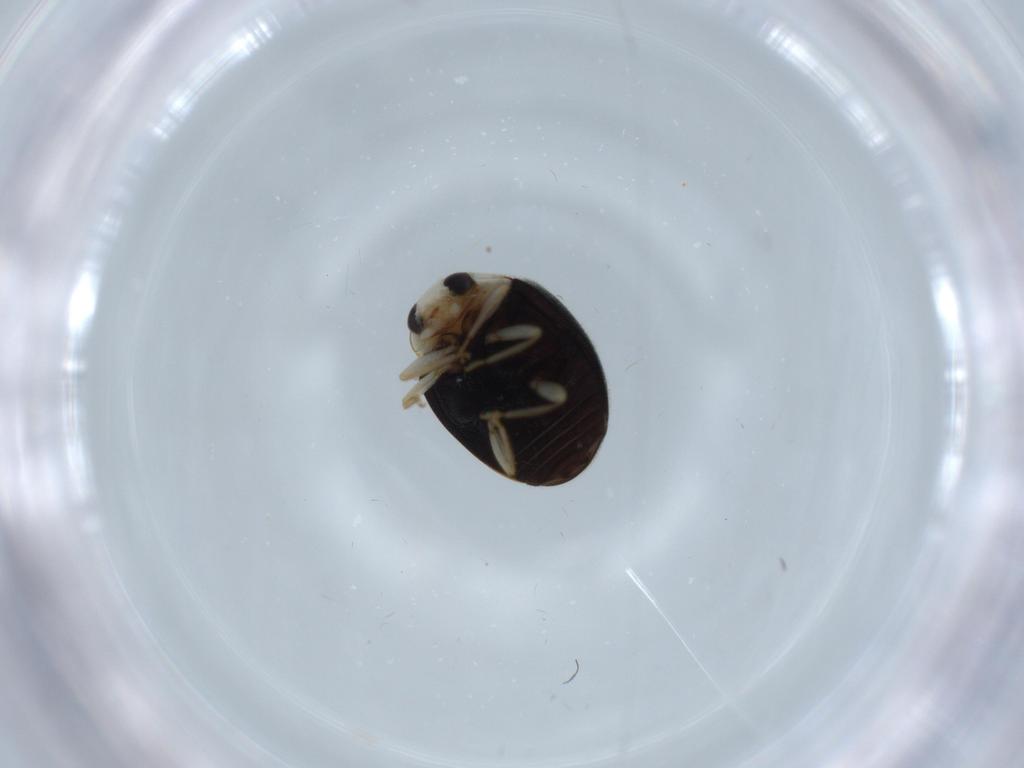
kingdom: Animalia
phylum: Arthropoda
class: Insecta
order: Coleoptera
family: Coccinellidae
